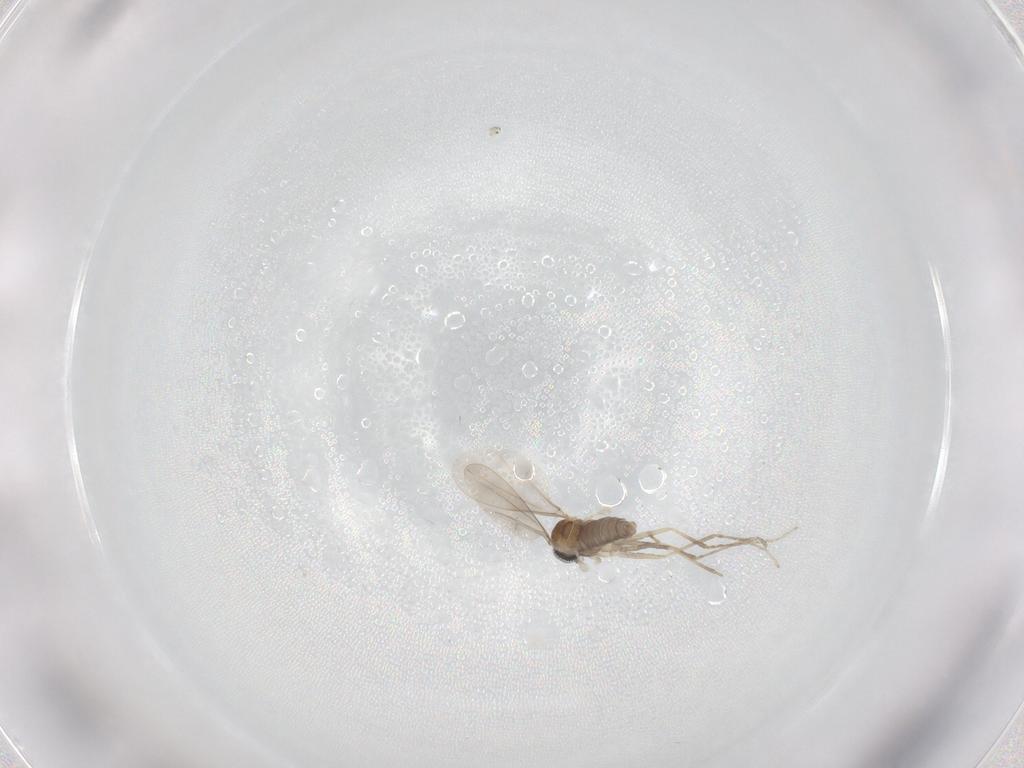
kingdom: Animalia
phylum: Arthropoda
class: Insecta
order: Diptera
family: Cecidomyiidae
